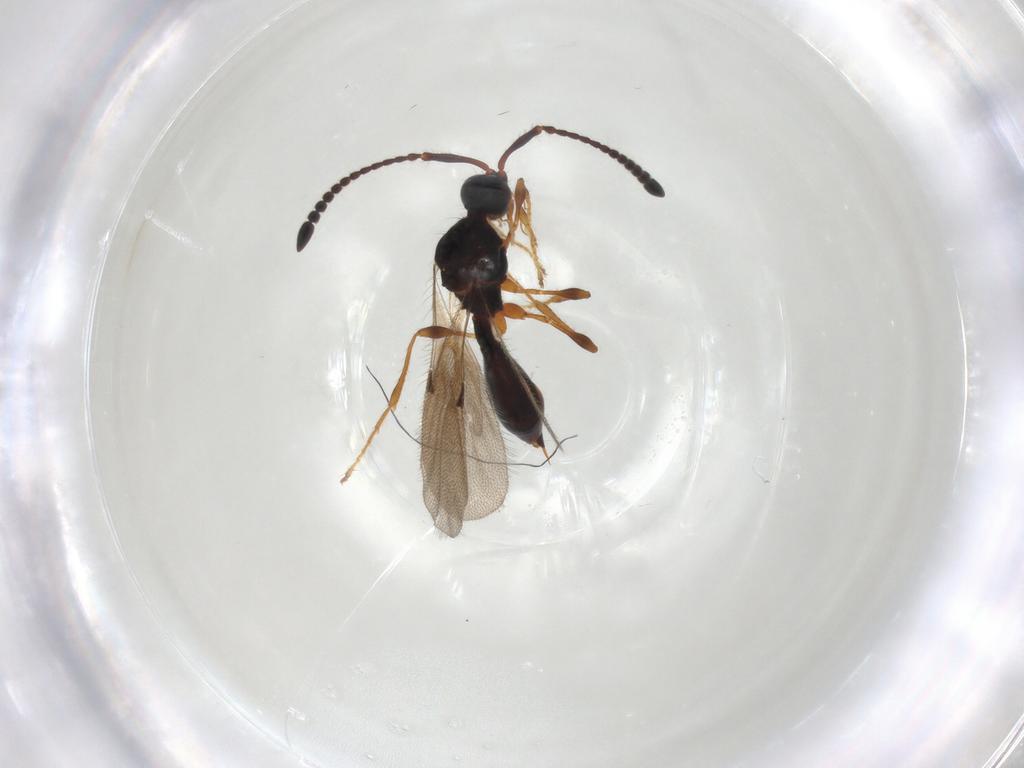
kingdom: Animalia
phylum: Arthropoda
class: Insecta
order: Hymenoptera
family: Diapriidae
